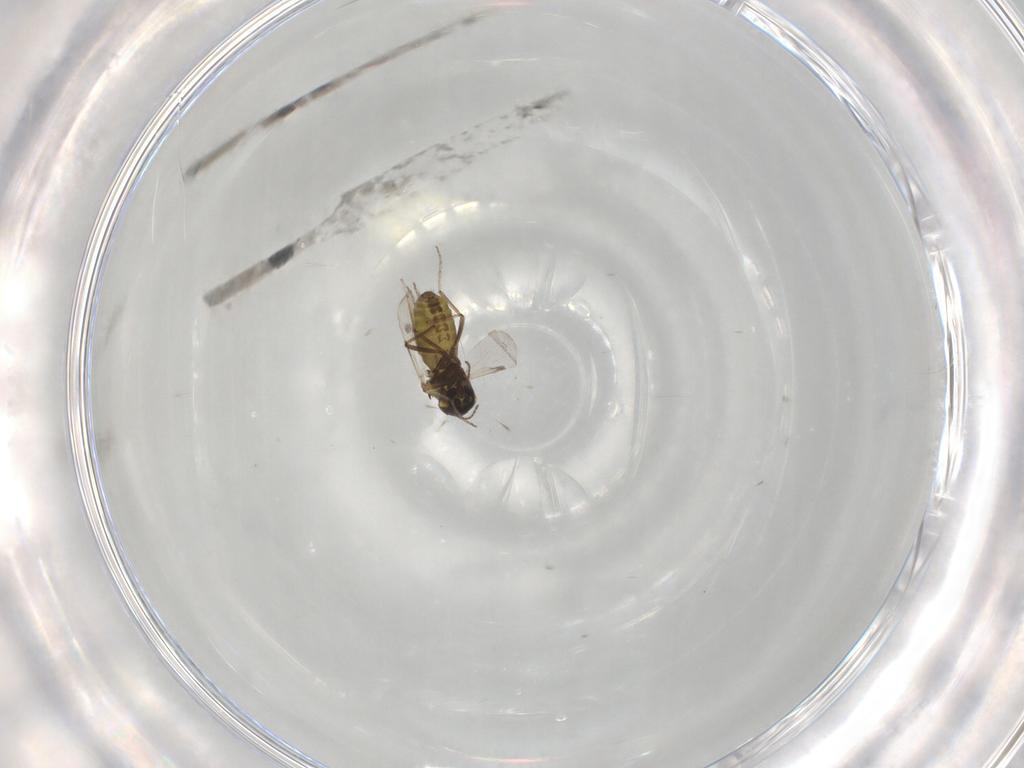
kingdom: Animalia
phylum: Arthropoda
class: Insecta
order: Diptera
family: Ceratopogonidae
